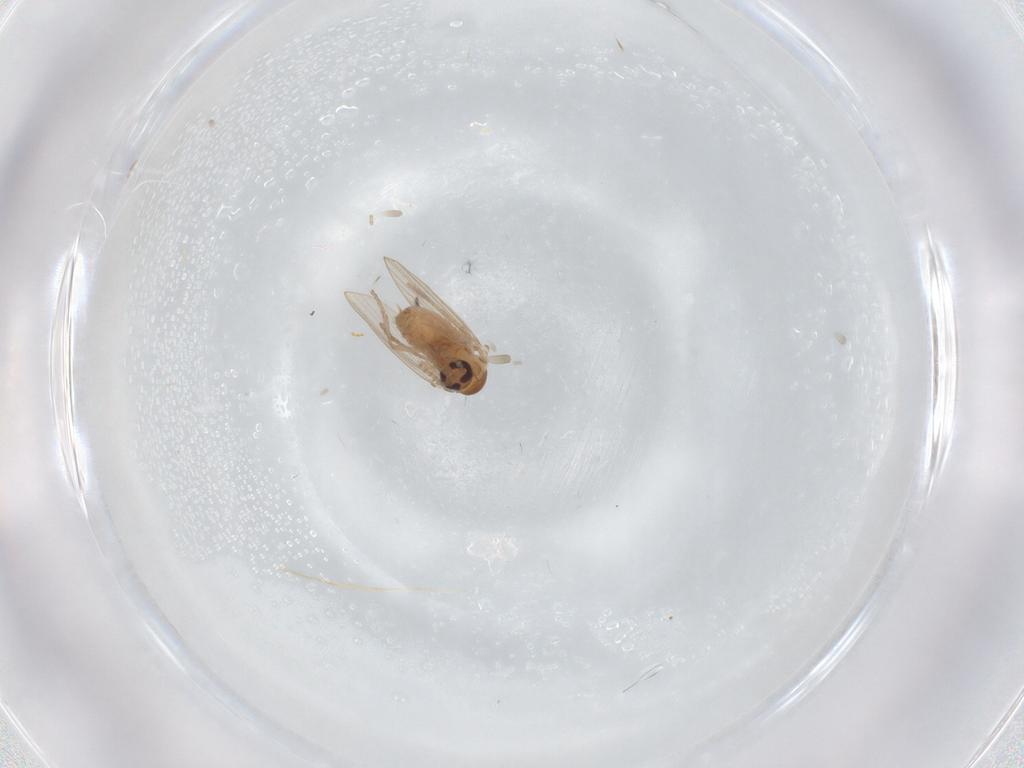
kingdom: Animalia
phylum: Arthropoda
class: Insecta
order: Diptera
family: Psychodidae
